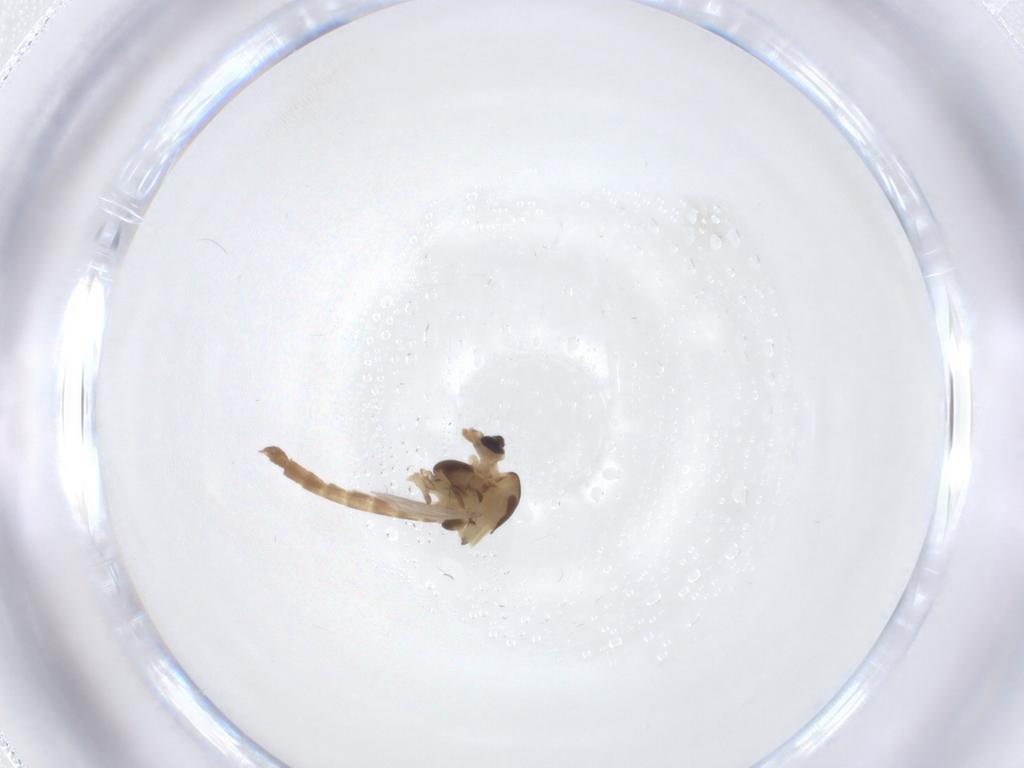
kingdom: Animalia
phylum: Arthropoda
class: Insecta
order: Diptera
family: Chironomidae
